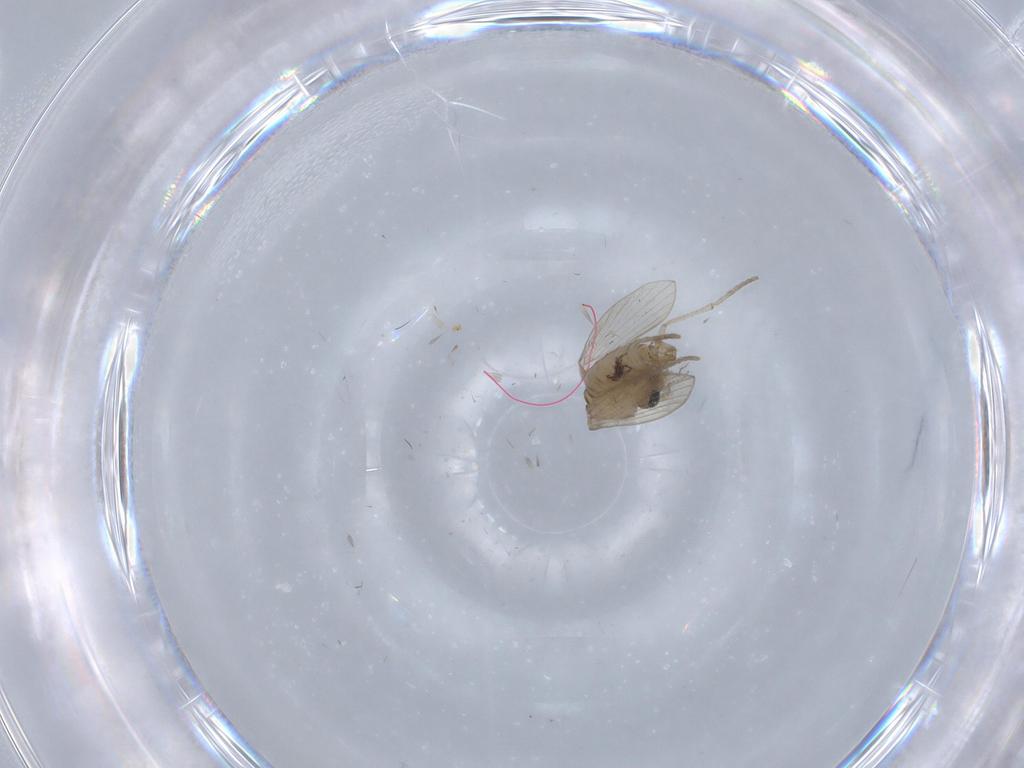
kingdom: Animalia
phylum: Arthropoda
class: Insecta
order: Diptera
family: Psychodidae
